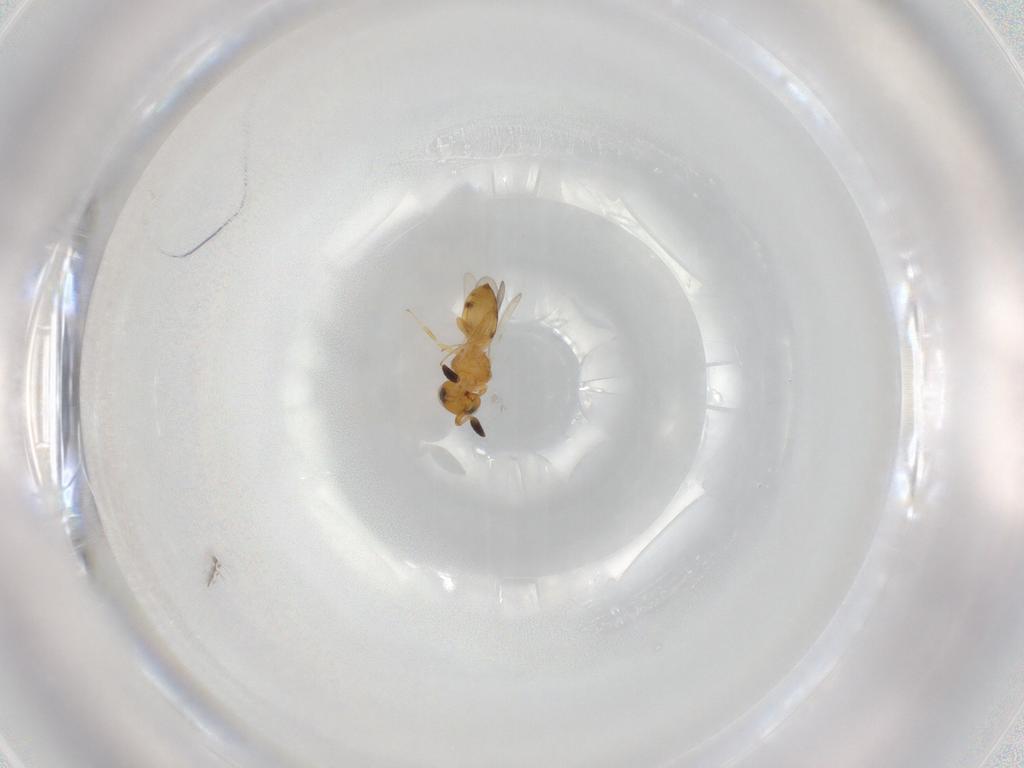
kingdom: Animalia
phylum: Arthropoda
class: Insecta
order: Hymenoptera
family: Scelionidae
